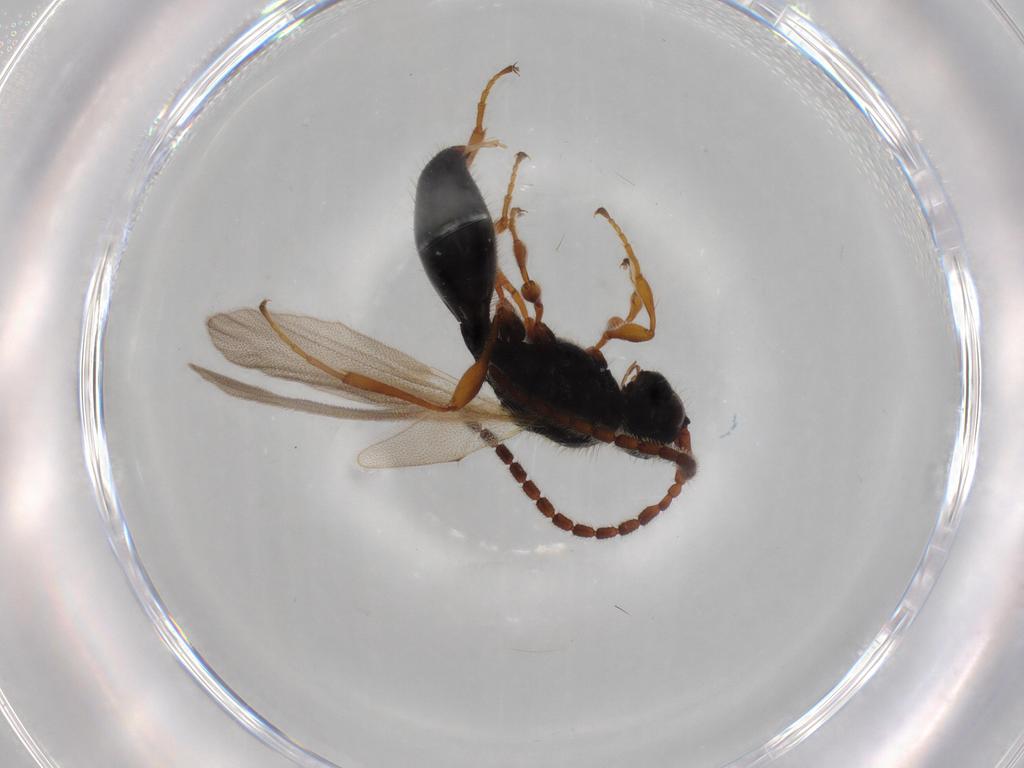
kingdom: Animalia
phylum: Arthropoda
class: Insecta
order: Hymenoptera
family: Diapriidae
